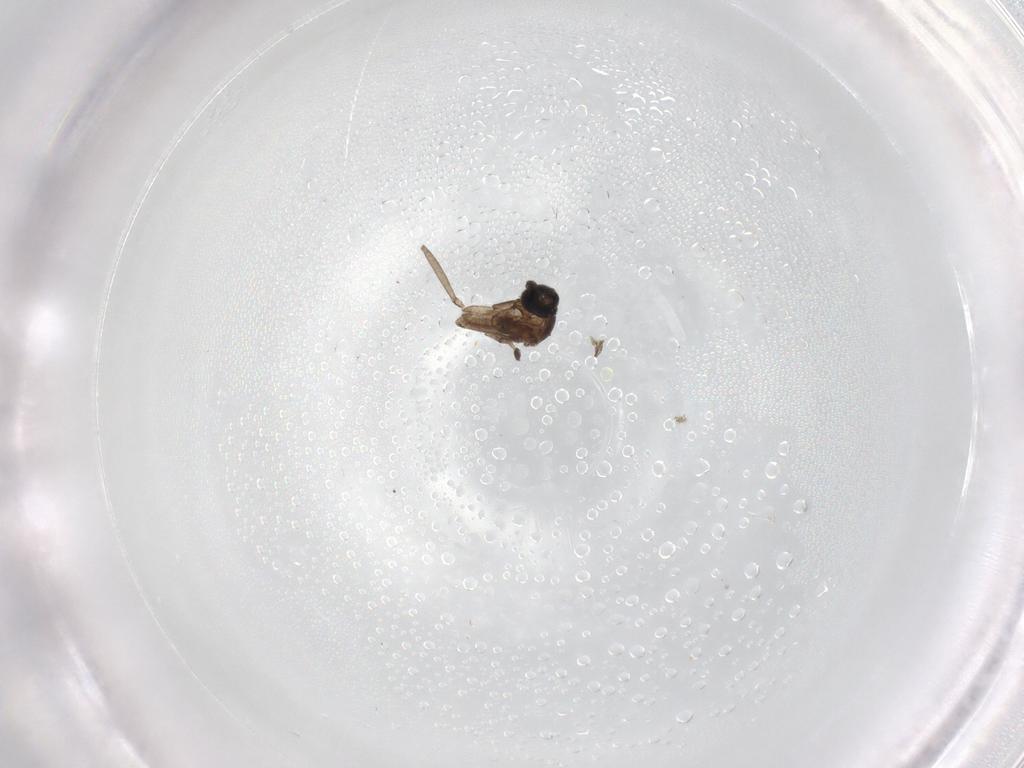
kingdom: Animalia
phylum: Arthropoda
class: Insecta
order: Diptera
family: Phoridae
